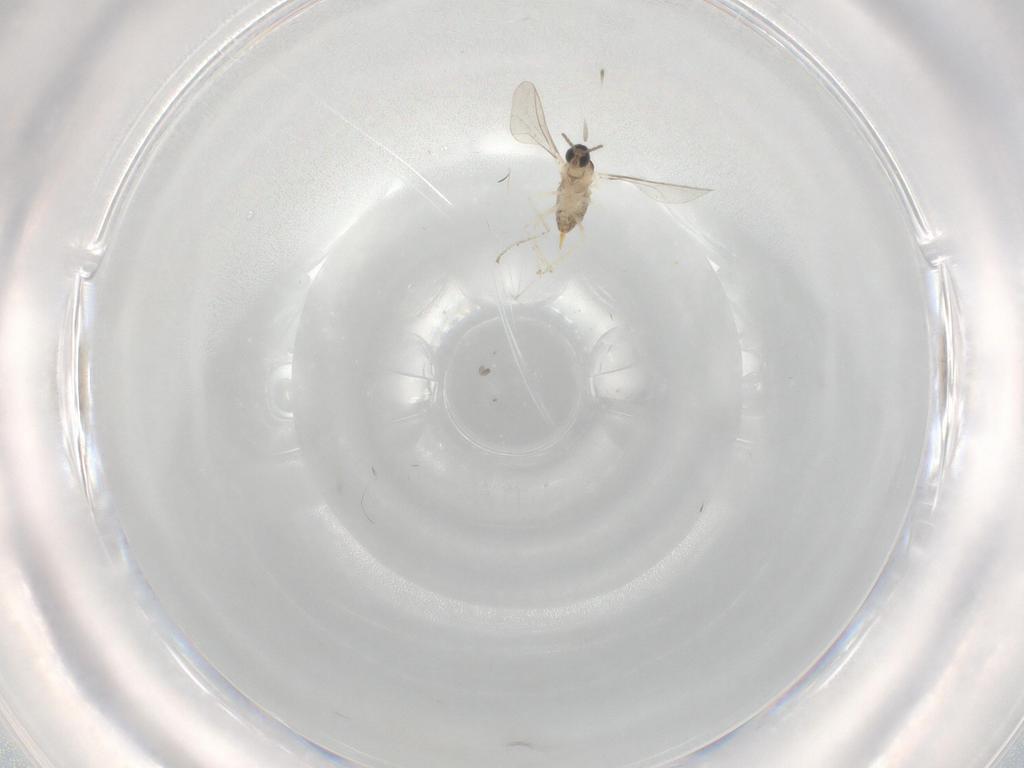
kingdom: Animalia
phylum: Arthropoda
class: Insecta
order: Diptera
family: Cecidomyiidae
